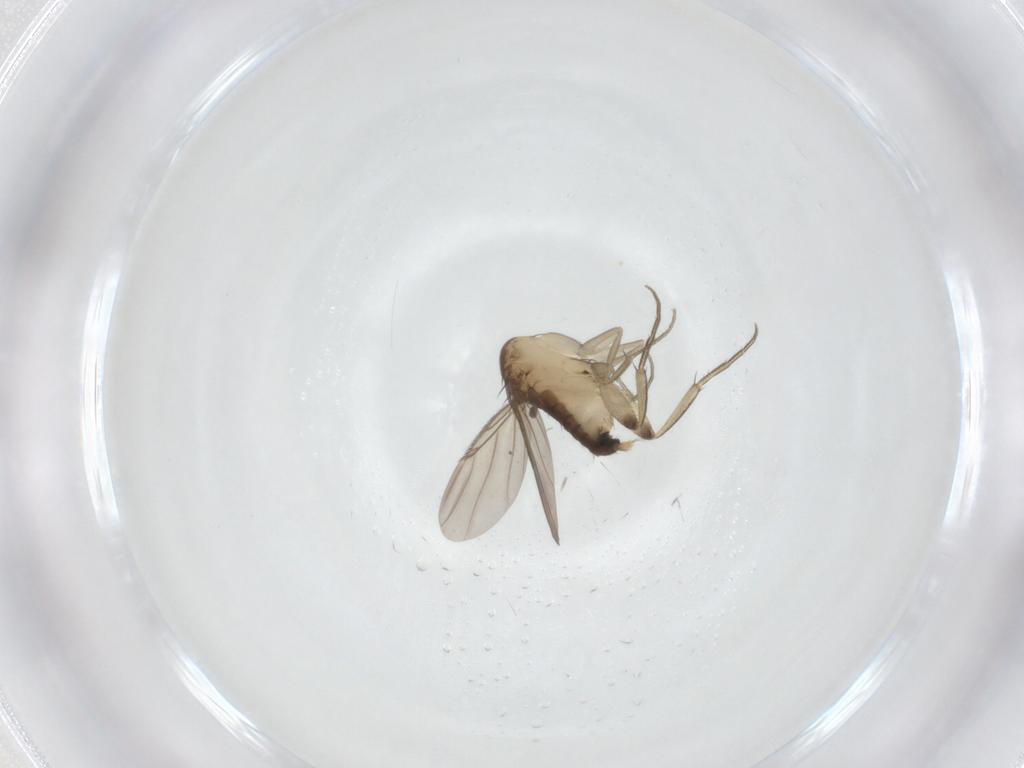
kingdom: Animalia
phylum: Arthropoda
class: Insecta
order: Diptera
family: Phoridae
